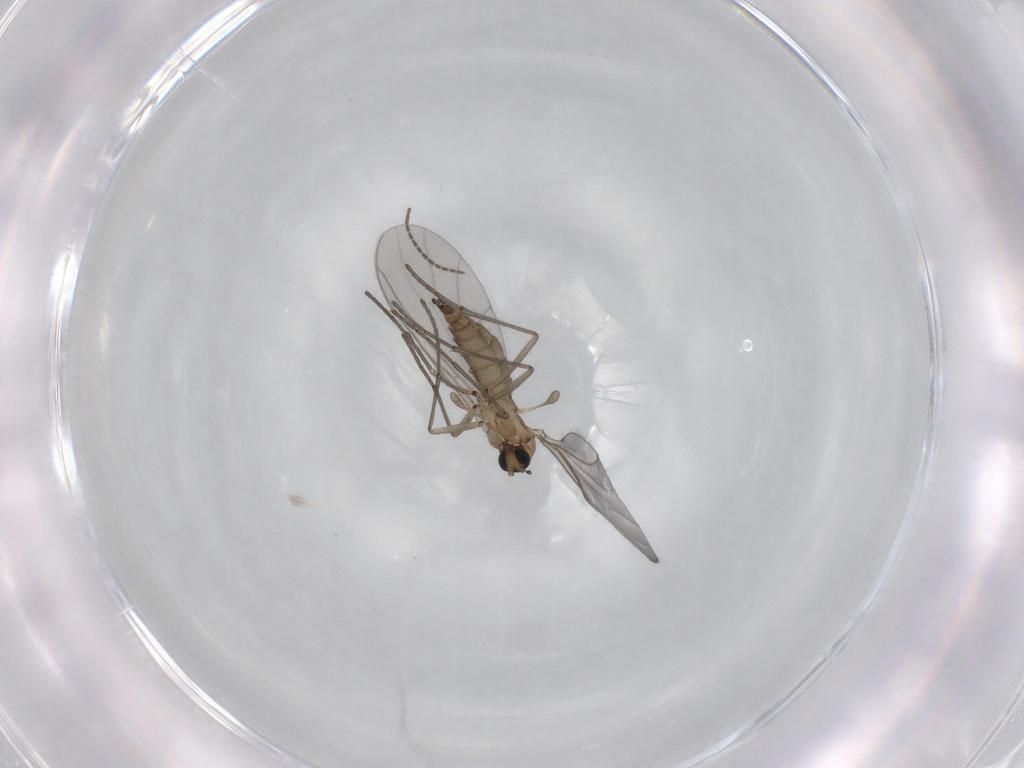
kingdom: Animalia
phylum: Arthropoda
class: Insecta
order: Diptera
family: Sciaridae
